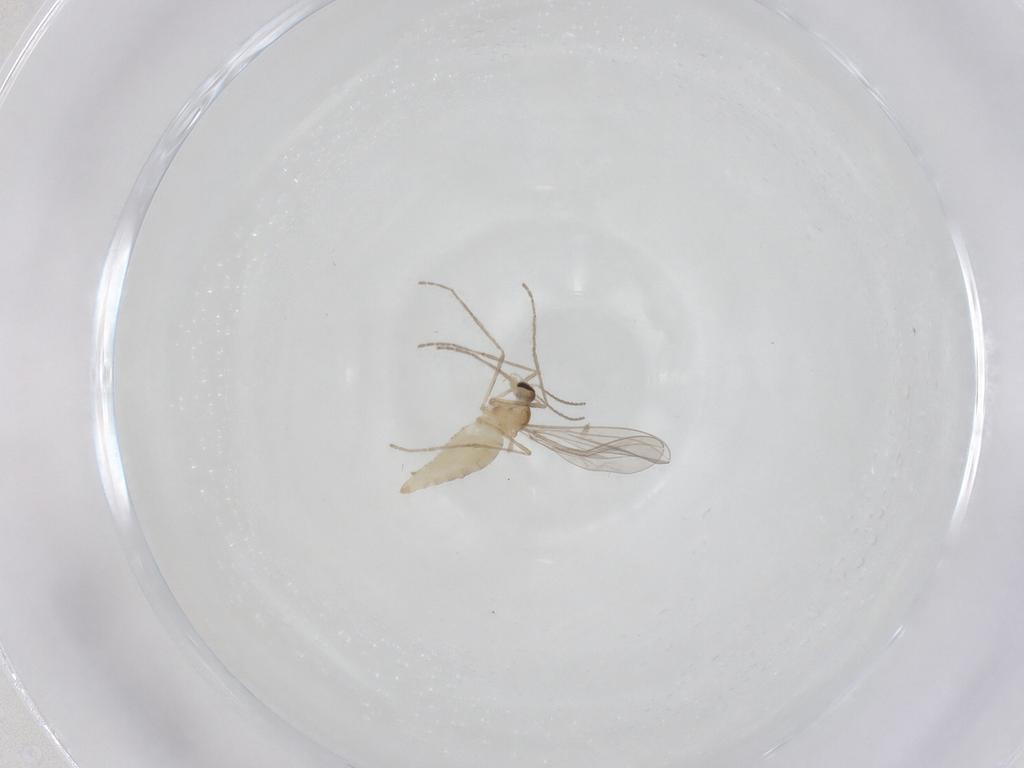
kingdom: Animalia
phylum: Arthropoda
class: Insecta
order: Diptera
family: Cecidomyiidae
